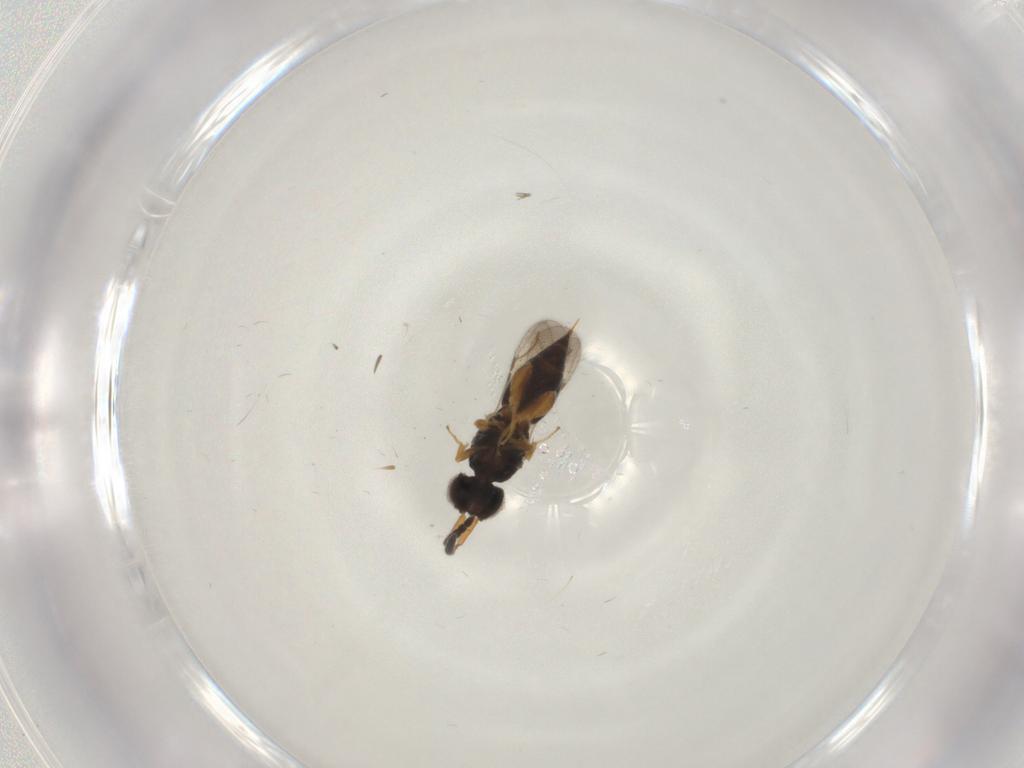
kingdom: Animalia
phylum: Arthropoda
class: Insecta
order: Hymenoptera
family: Ceraphronidae
